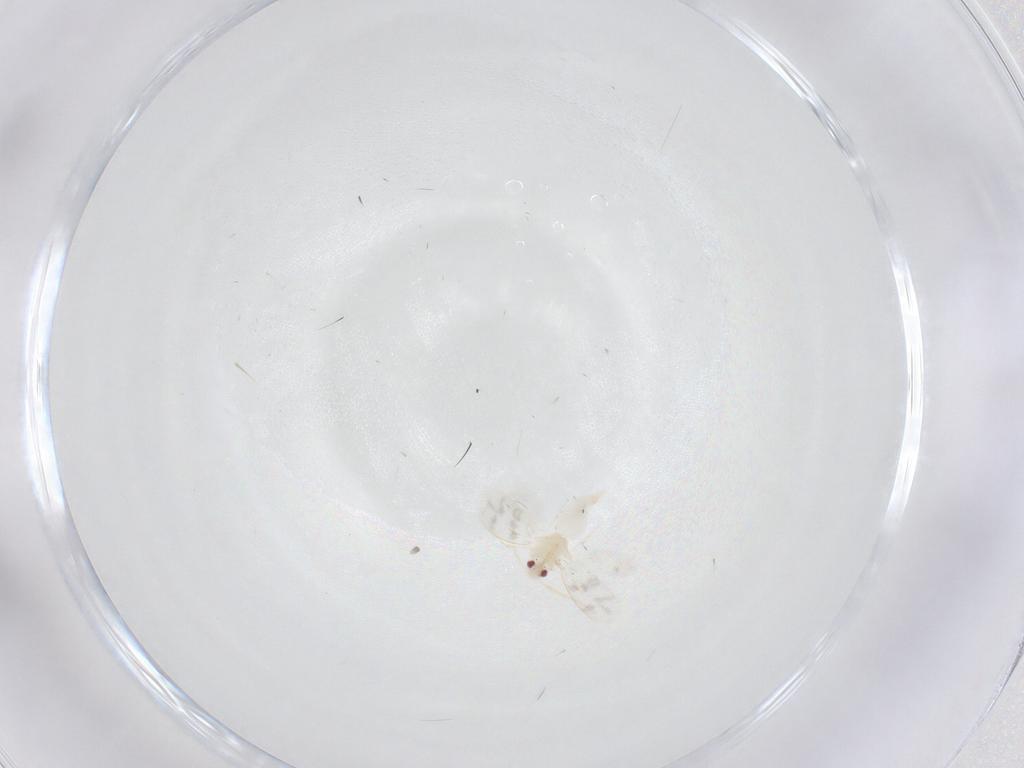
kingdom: Animalia
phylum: Arthropoda
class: Insecta
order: Hemiptera
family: Aleyrodidae
